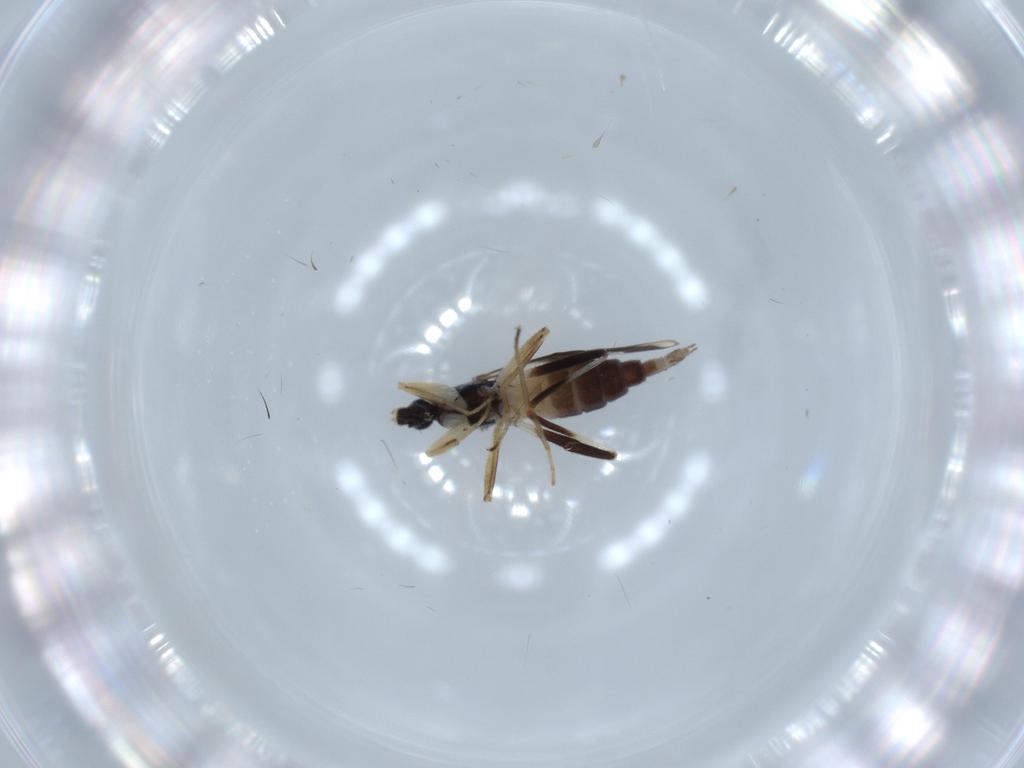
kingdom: Animalia
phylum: Arthropoda
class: Insecta
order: Diptera
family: Hybotidae
